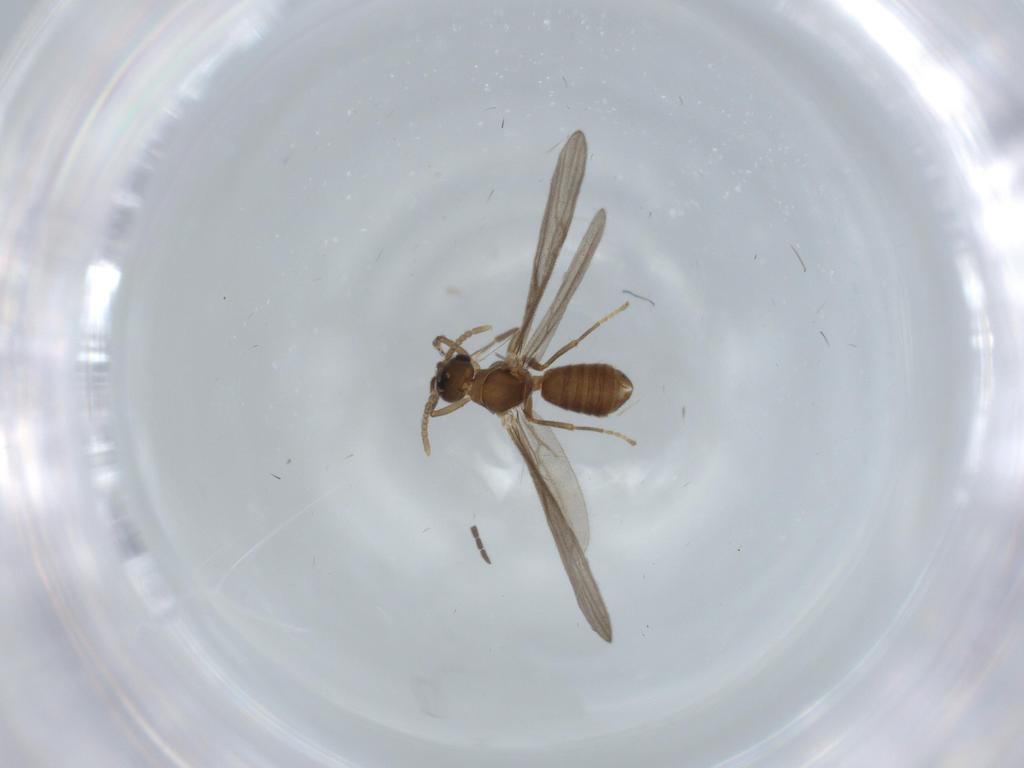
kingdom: Animalia
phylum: Arthropoda
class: Insecta
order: Hymenoptera
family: Formicidae
